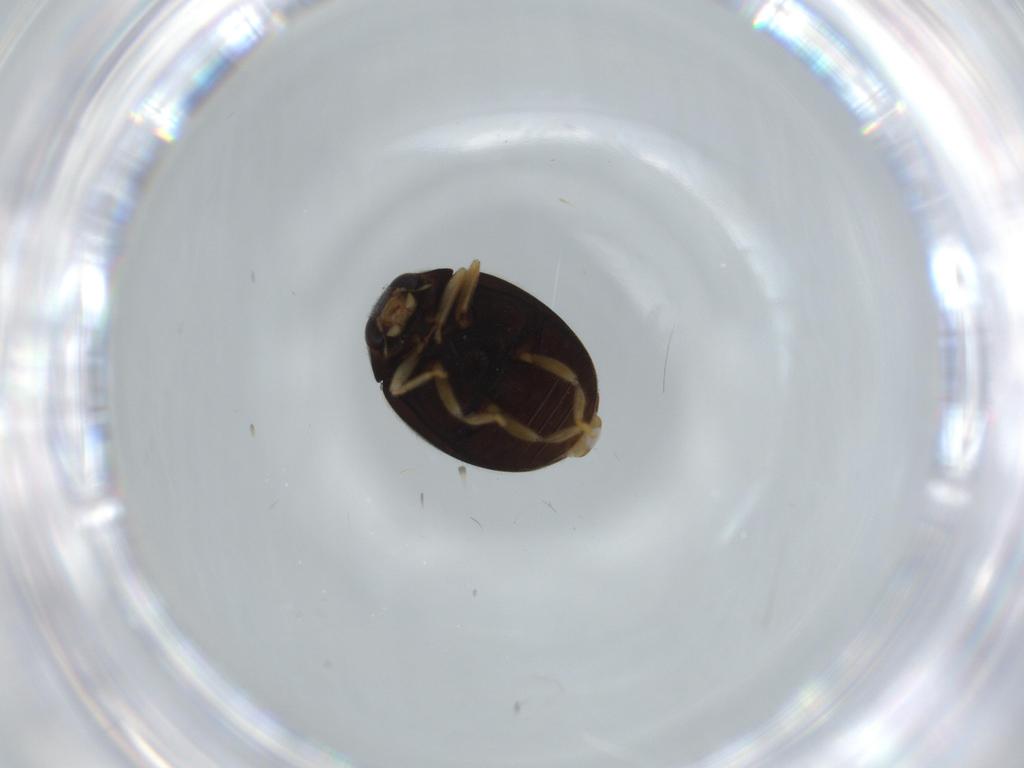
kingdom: Animalia
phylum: Arthropoda
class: Insecta
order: Coleoptera
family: Coccinellidae
